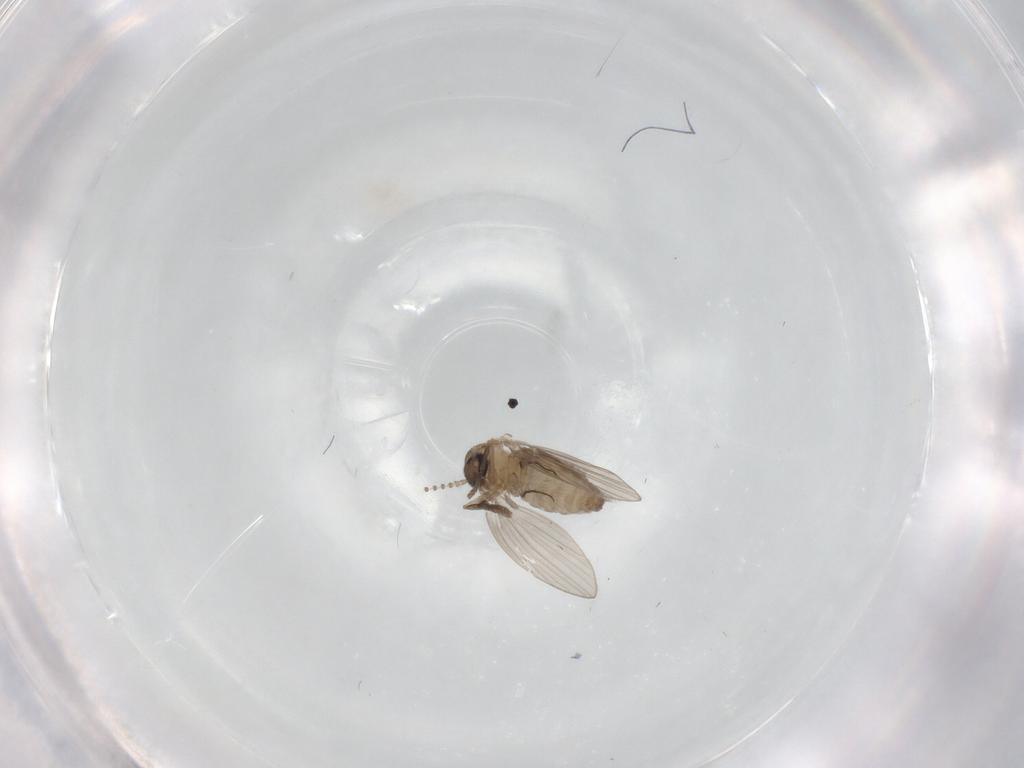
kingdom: Animalia
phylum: Arthropoda
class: Insecta
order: Diptera
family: Psychodidae
